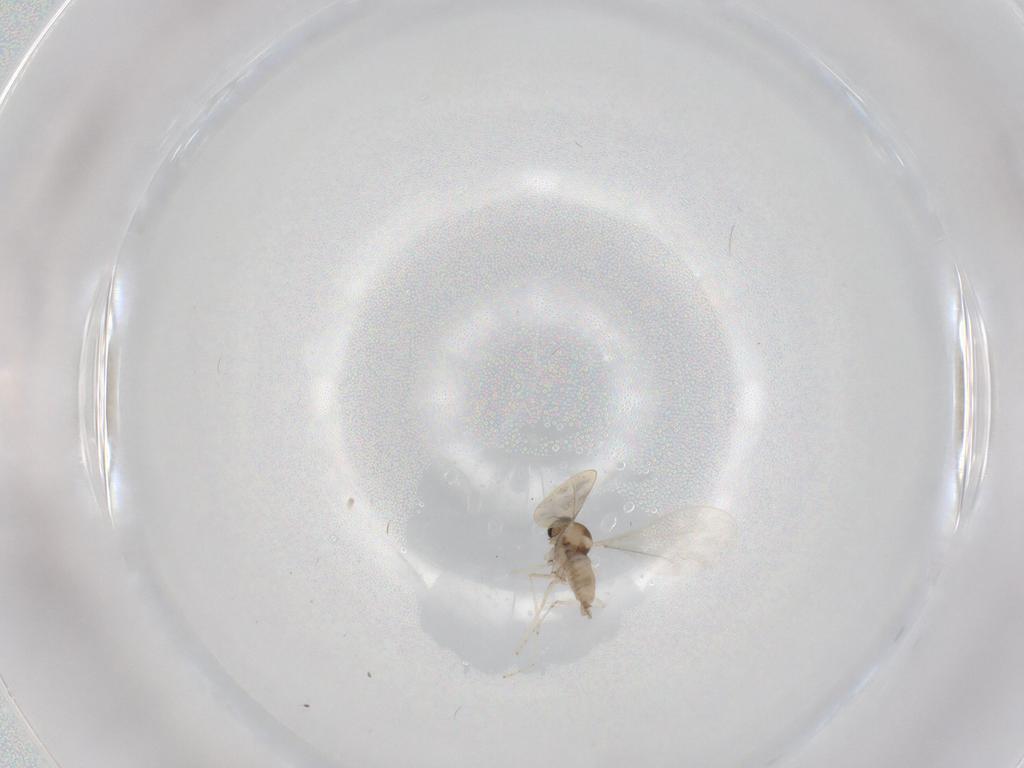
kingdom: Animalia
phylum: Arthropoda
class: Insecta
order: Diptera
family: Cecidomyiidae
